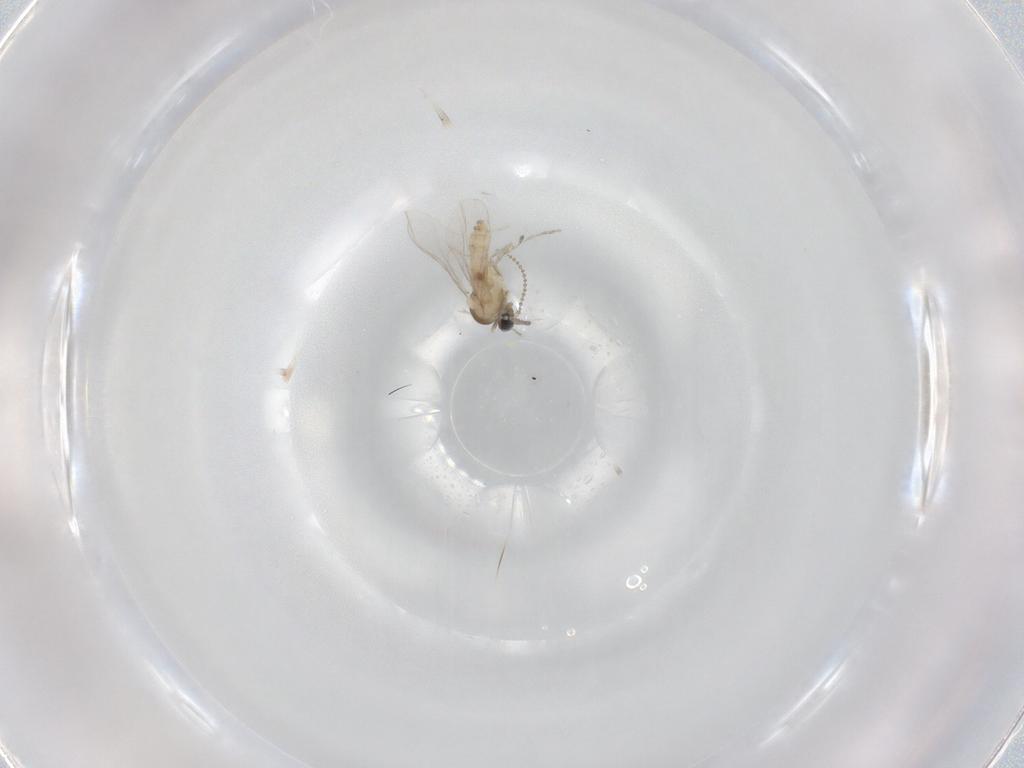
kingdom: Animalia
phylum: Arthropoda
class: Insecta
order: Diptera
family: Cecidomyiidae
